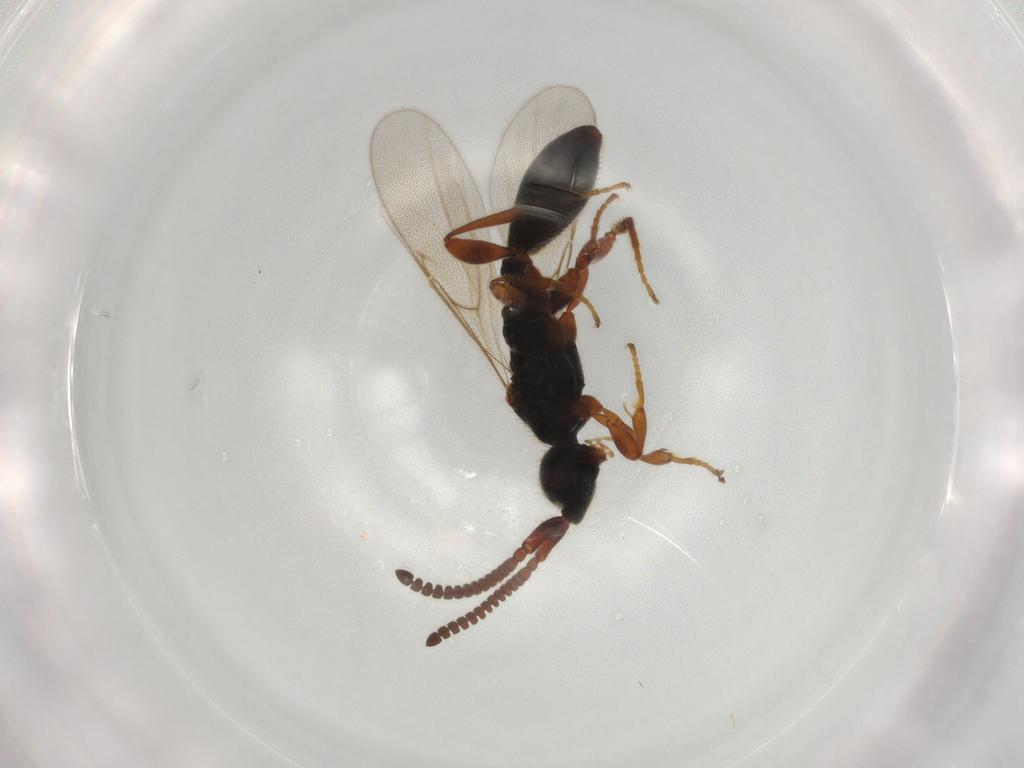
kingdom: Animalia
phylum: Arthropoda
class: Insecta
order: Hymenoptera
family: Ichneumonidae
